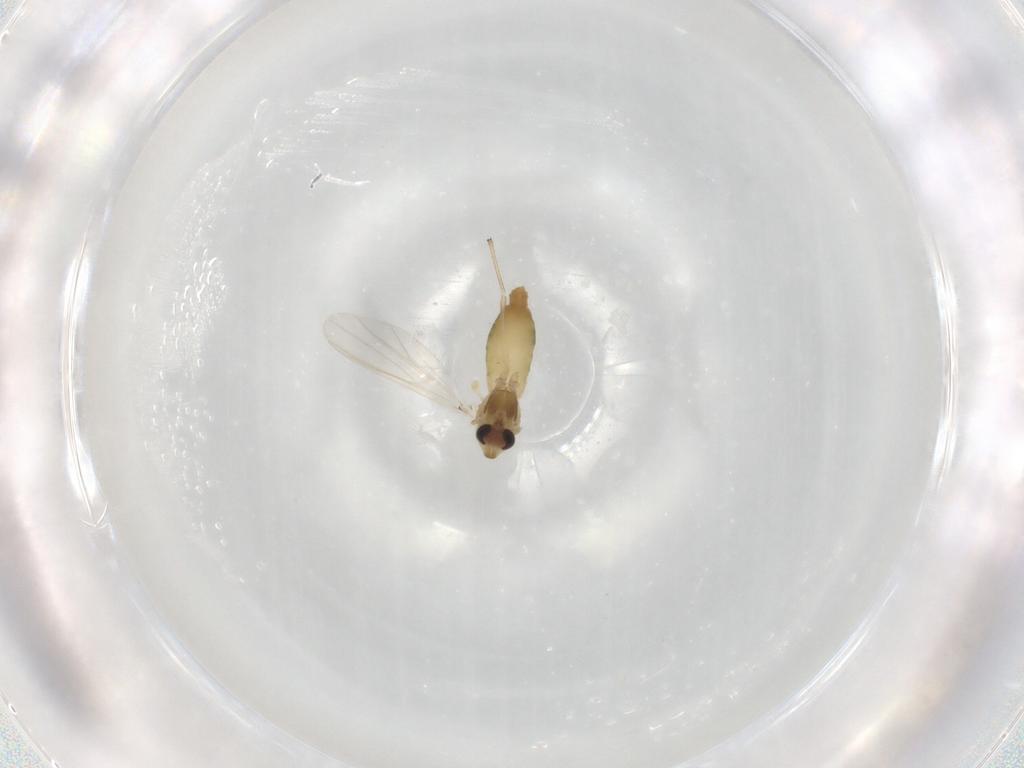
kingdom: Animalia
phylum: Arthropoda
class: Insecta
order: Diptera
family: Chironomidae
